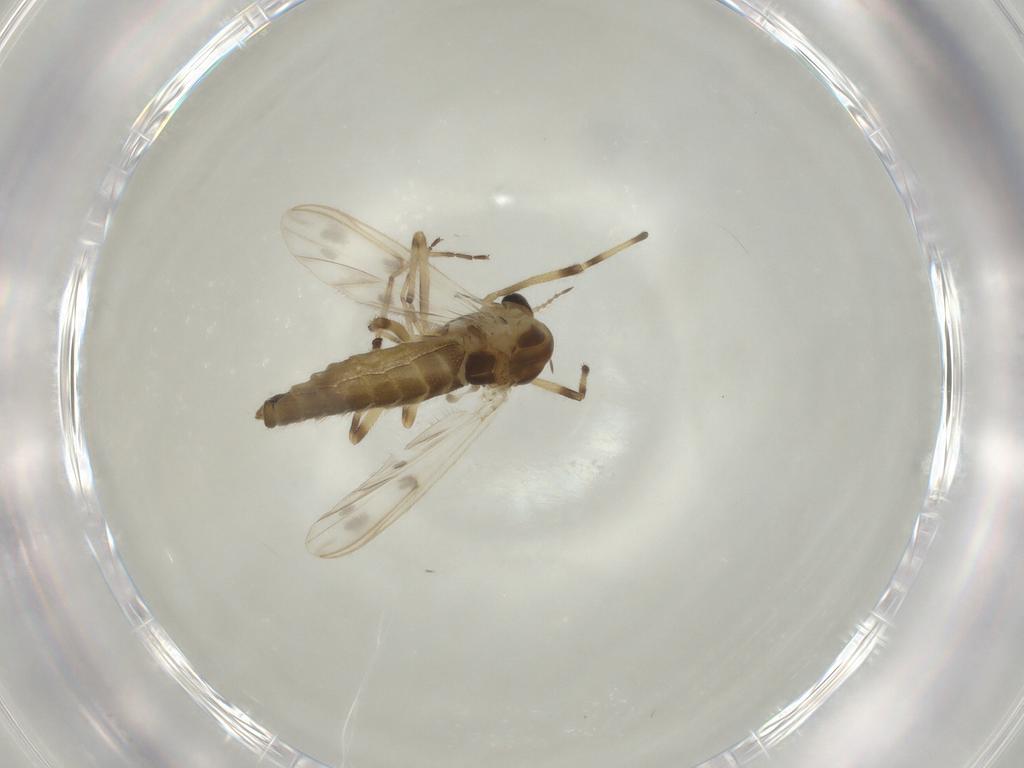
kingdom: Animalia
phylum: Arthropoda
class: Insecta
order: Diptera
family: Chironomidae
